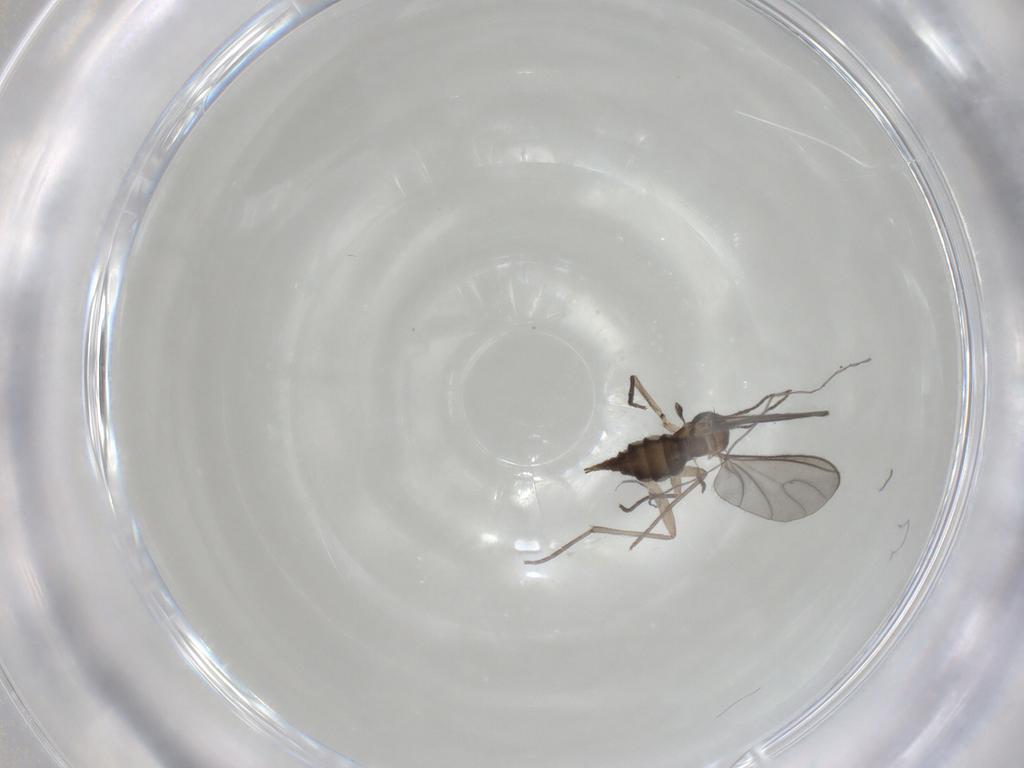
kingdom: Animalia
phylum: Arthropoda
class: Insecta
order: Diptera
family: Sciaridae
